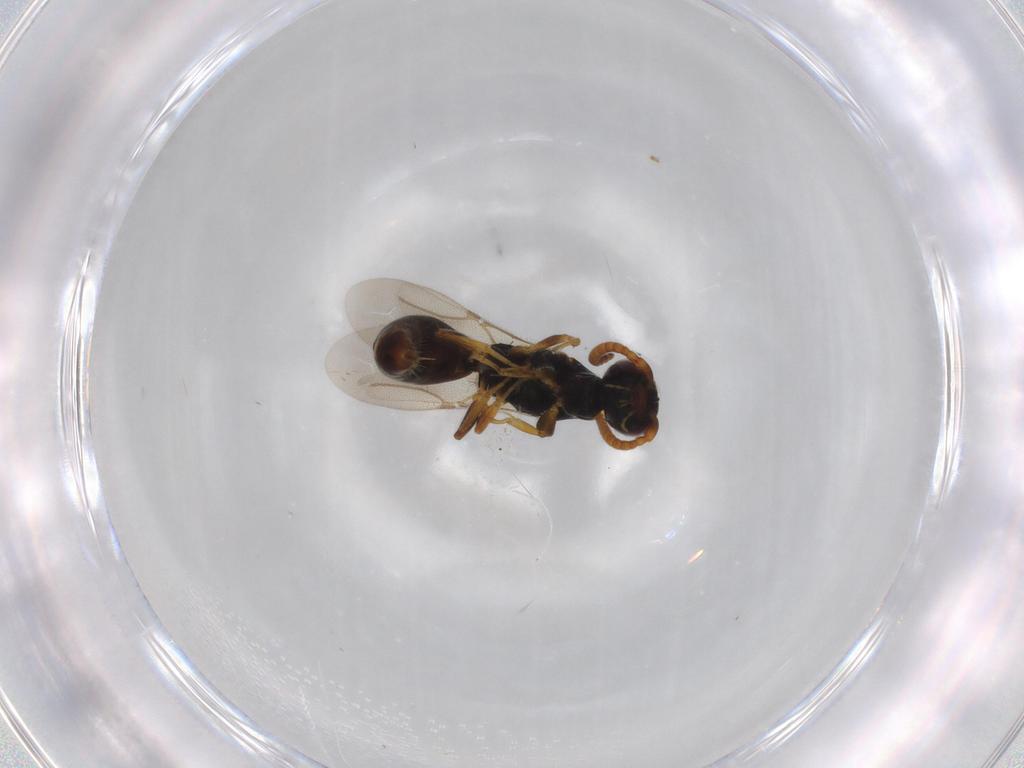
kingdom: Animalia
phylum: Arthropoda
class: Insecta
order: Hymenoptera
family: Bethylidae
